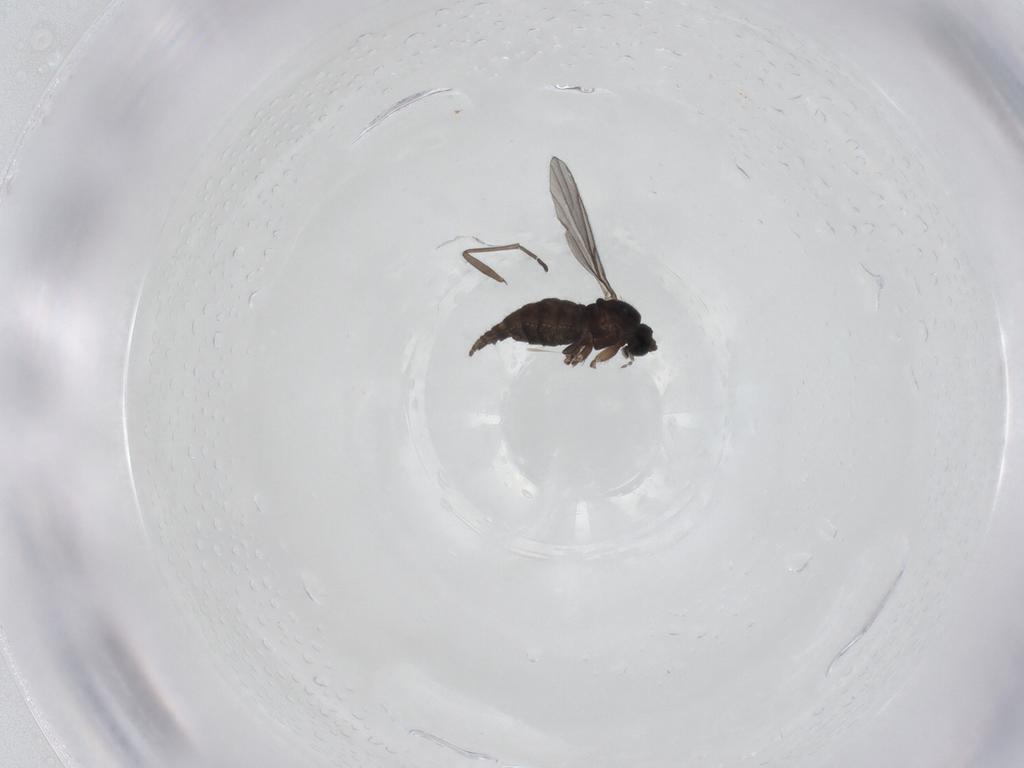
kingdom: Animalia
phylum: Arthropoda
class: Insecta
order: Diptera
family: Sciaridae
